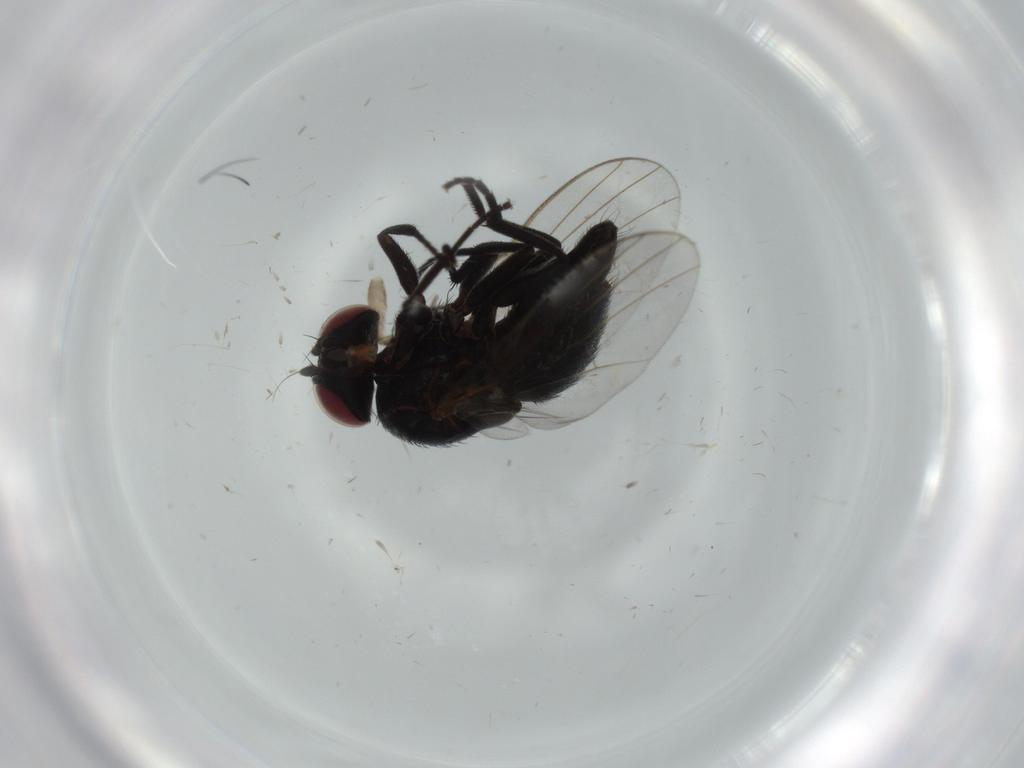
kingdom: Animalia
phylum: Arthropoda
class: Insecta
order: Diptera
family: Agromyzidae
